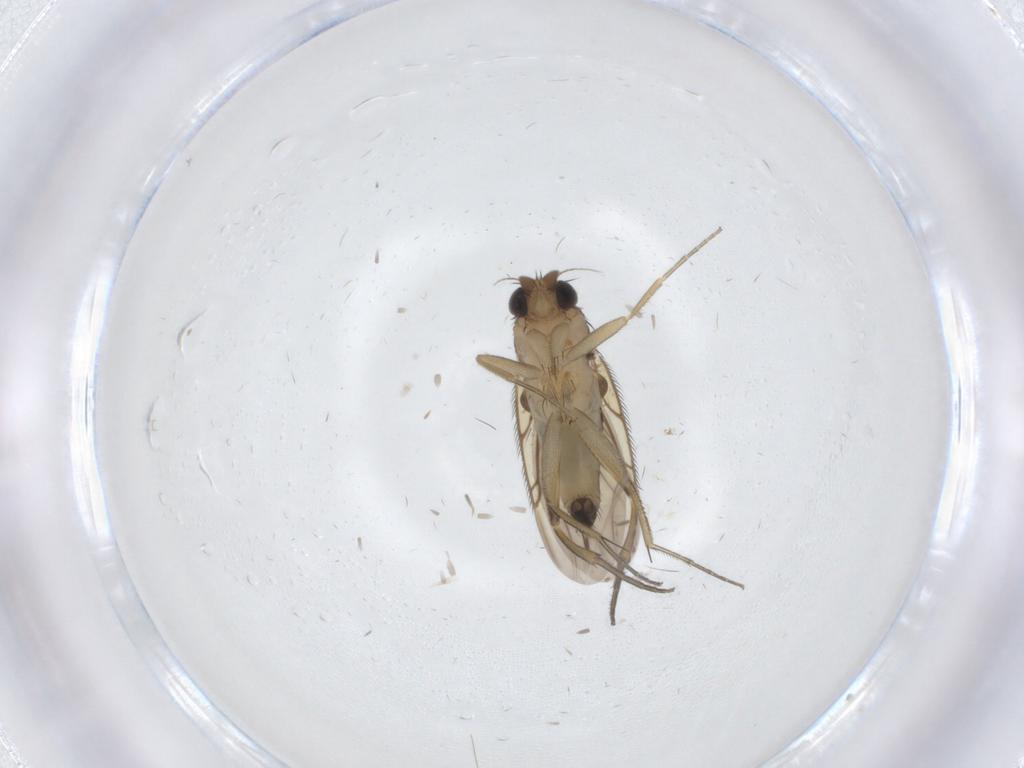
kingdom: Animalia
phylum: Arthropoda
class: Insecta
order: Diptera
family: Phoridae
